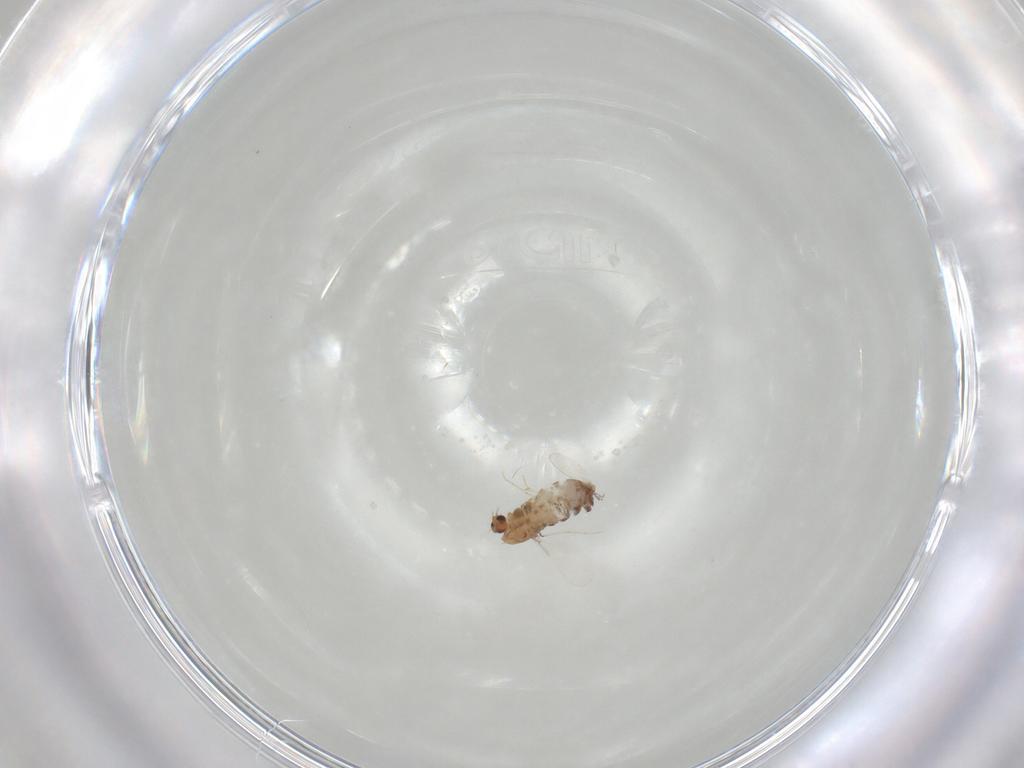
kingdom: Animalia
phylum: Arthropoda
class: Insecta
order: Diptera
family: Chironomidae
